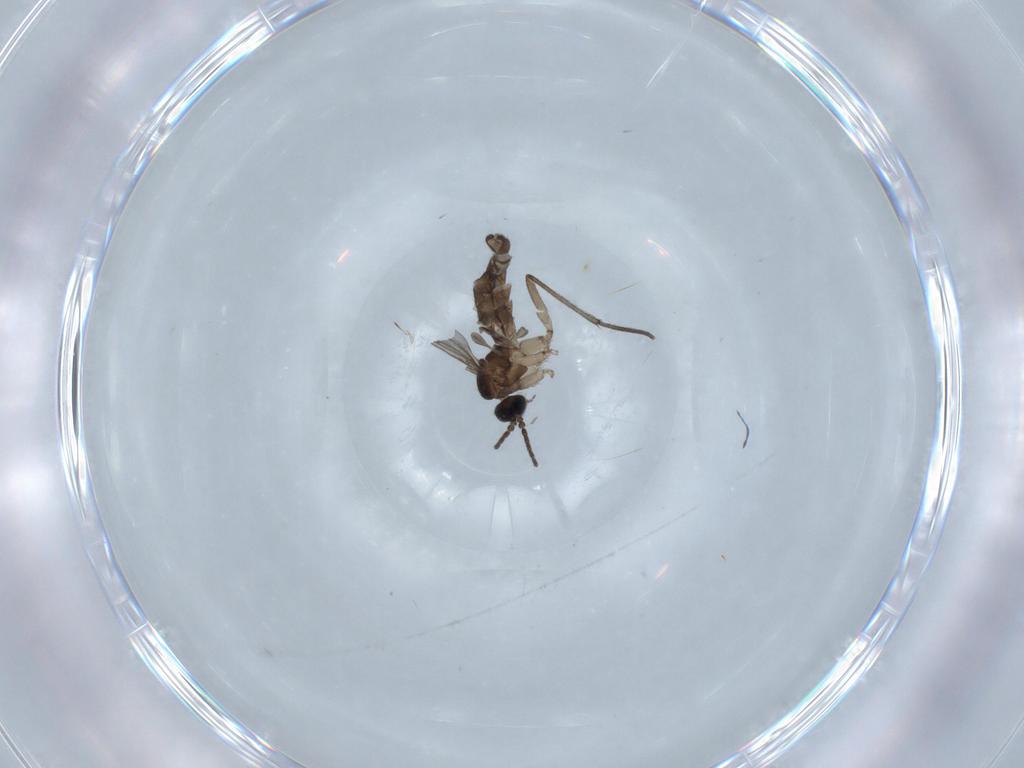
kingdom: Animalia
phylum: Arthropoda
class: Insecta
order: Diptera
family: Sciaridae
